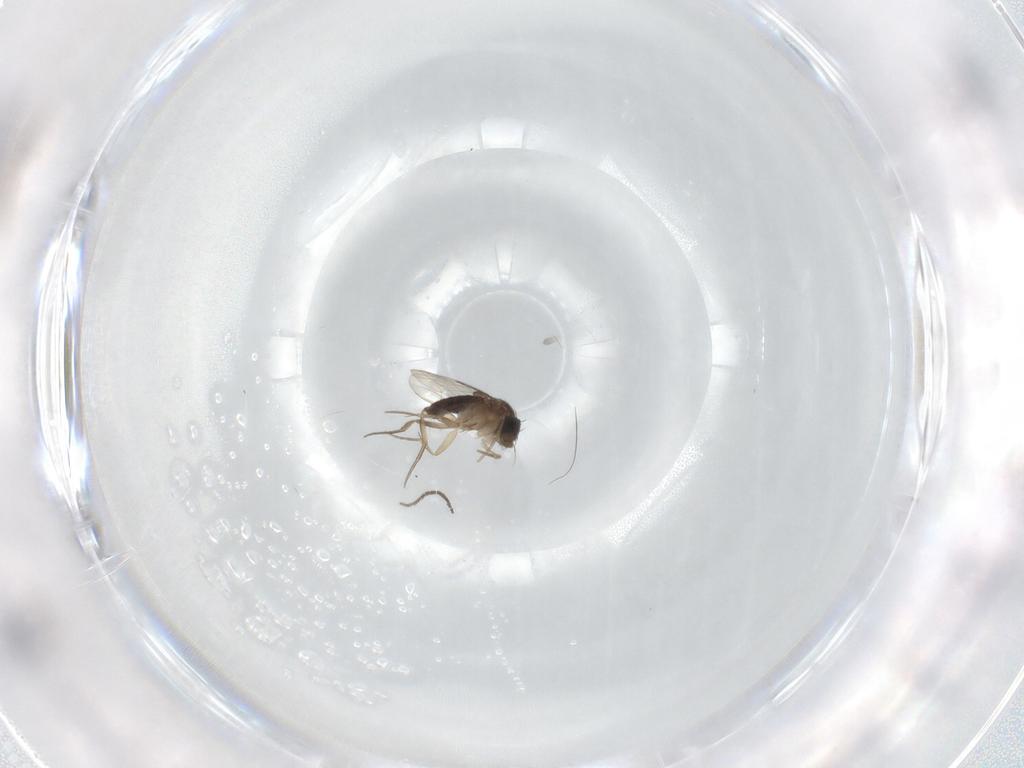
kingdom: Animalia
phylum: Arthropoda
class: Insecta
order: Diptera
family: Sciaridae
